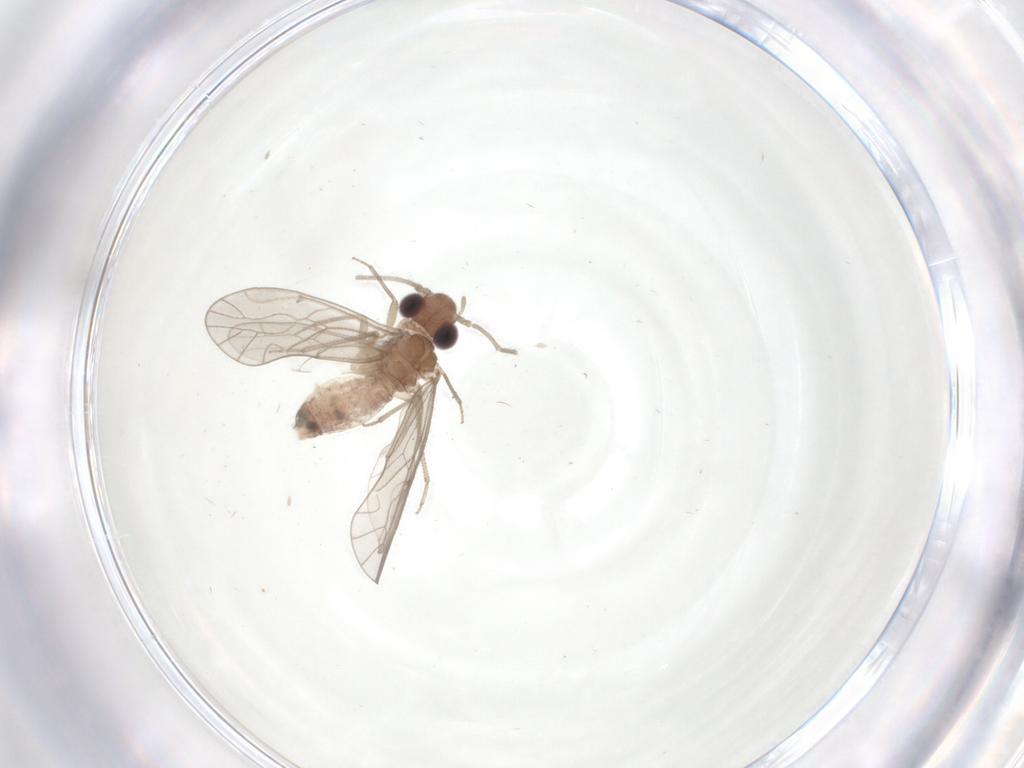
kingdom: Animalia
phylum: Arthropoda
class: Insecta
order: Psocodea
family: Caeciliusidae
